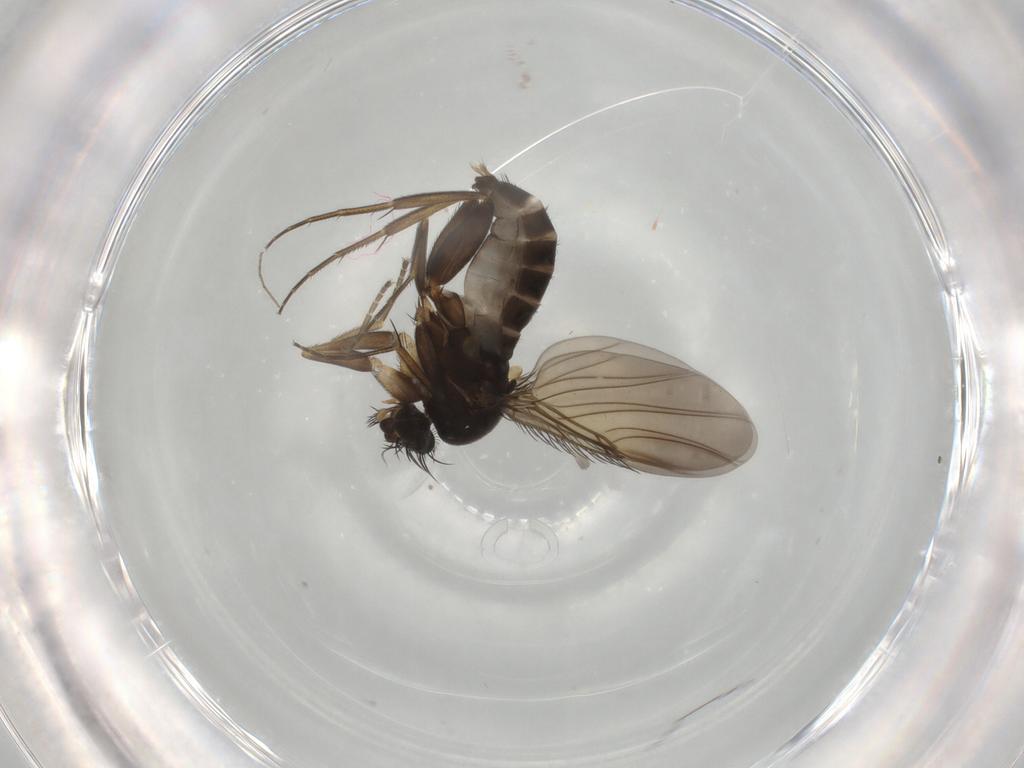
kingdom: Animalia
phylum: Arthropoda
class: Insecta
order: Diptera
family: Phoridae
